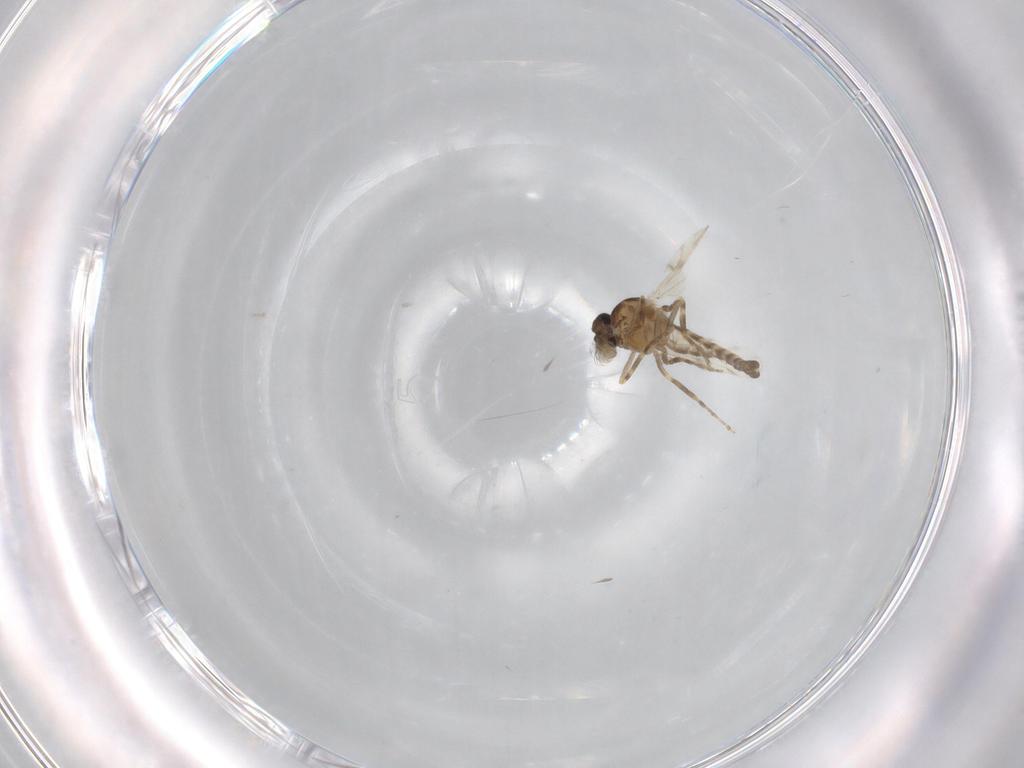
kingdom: Animalia
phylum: Arthropoda
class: Insecta
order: Diptera
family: Ceratopogonidae
